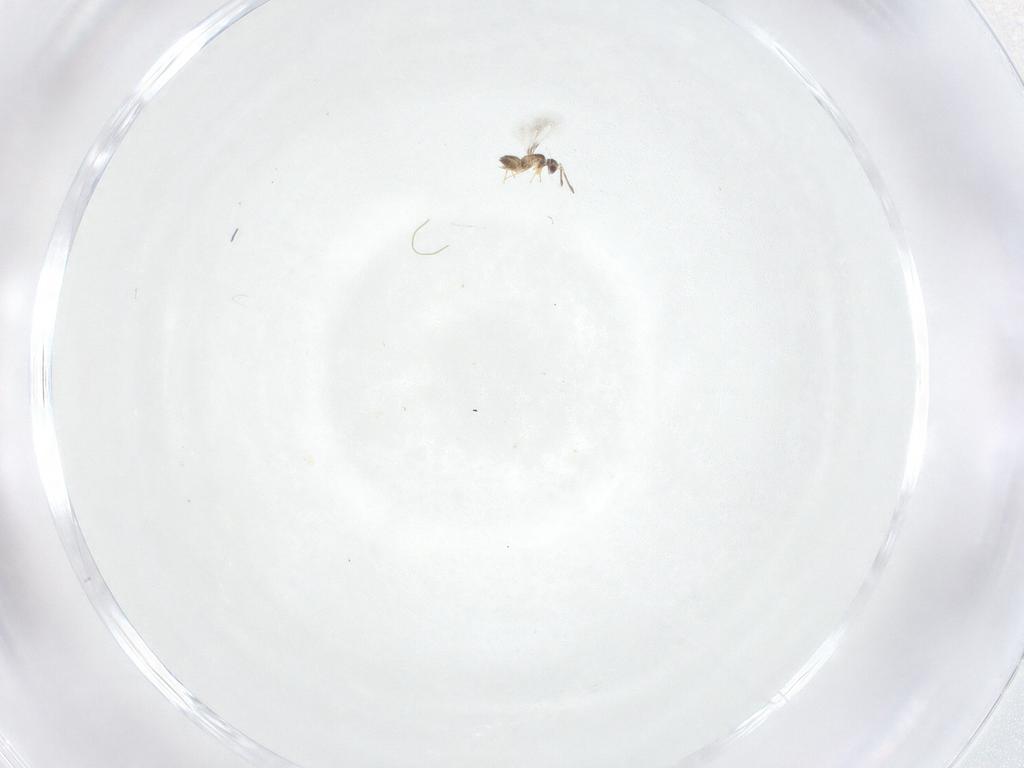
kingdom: Animalia
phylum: Arthropoda
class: Insecta
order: Hymenoptera
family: Mymaridae
